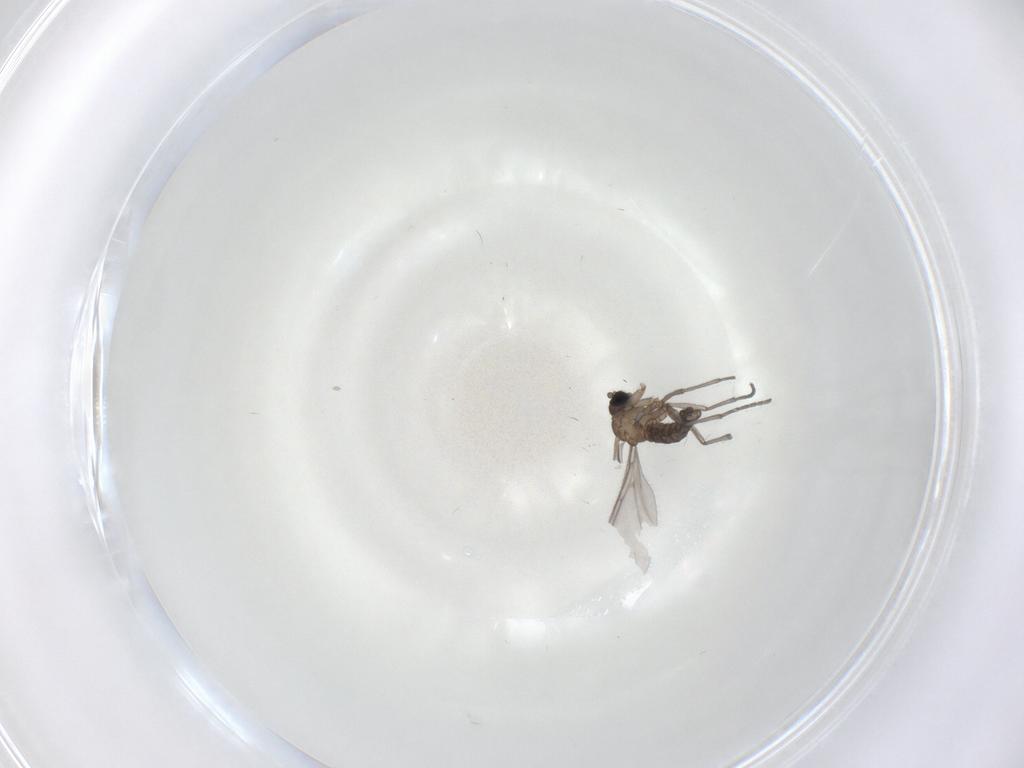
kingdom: Animalia
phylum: Arthropoda
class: Insecta
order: Diptera
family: Sciaridae
